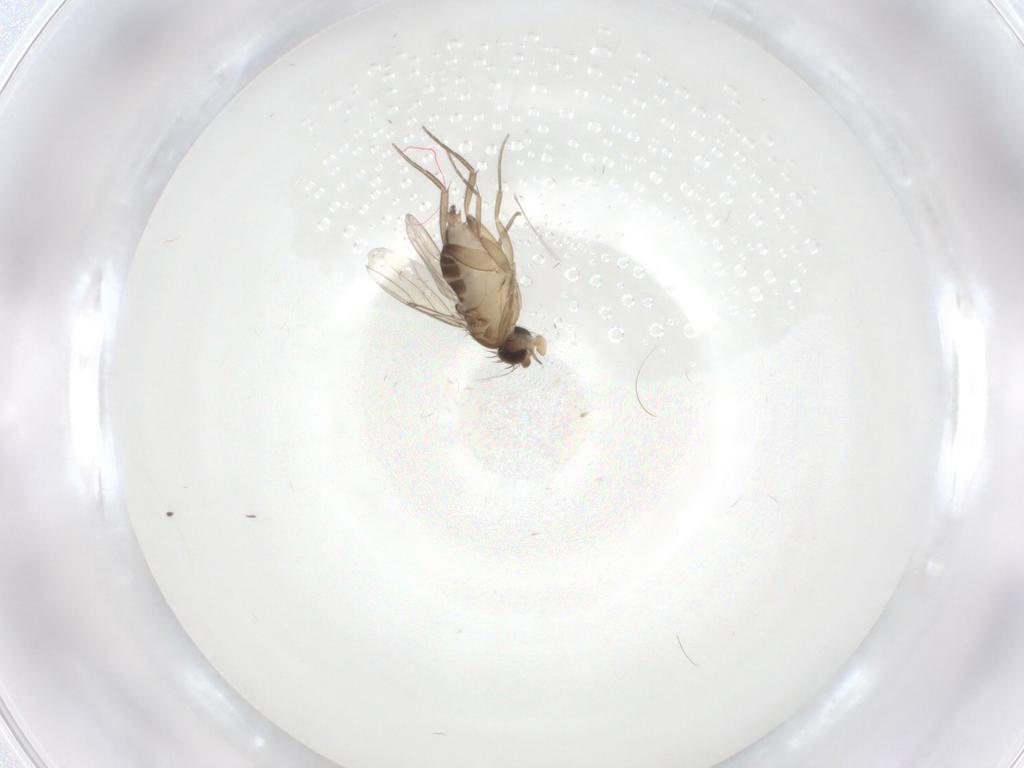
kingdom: Animalia
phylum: Arthropoda
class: Insecta
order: Diptera
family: Phoridae
